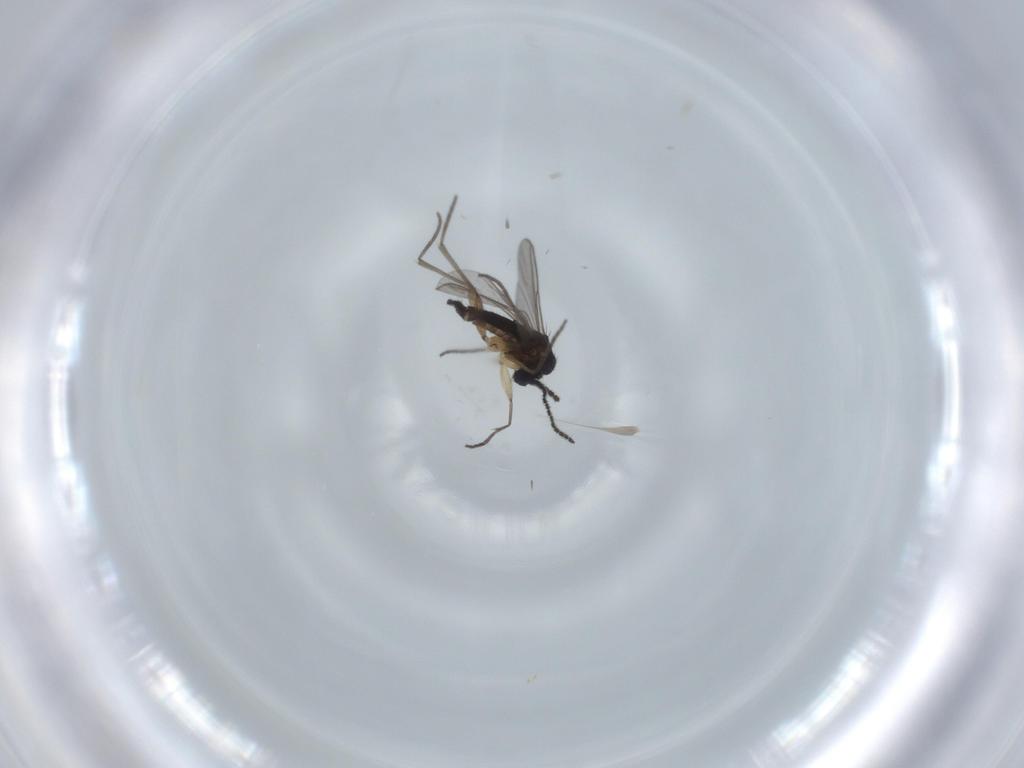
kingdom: Animalia
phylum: Arthropoda
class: Insecta
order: Diptera
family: Sciaridae
